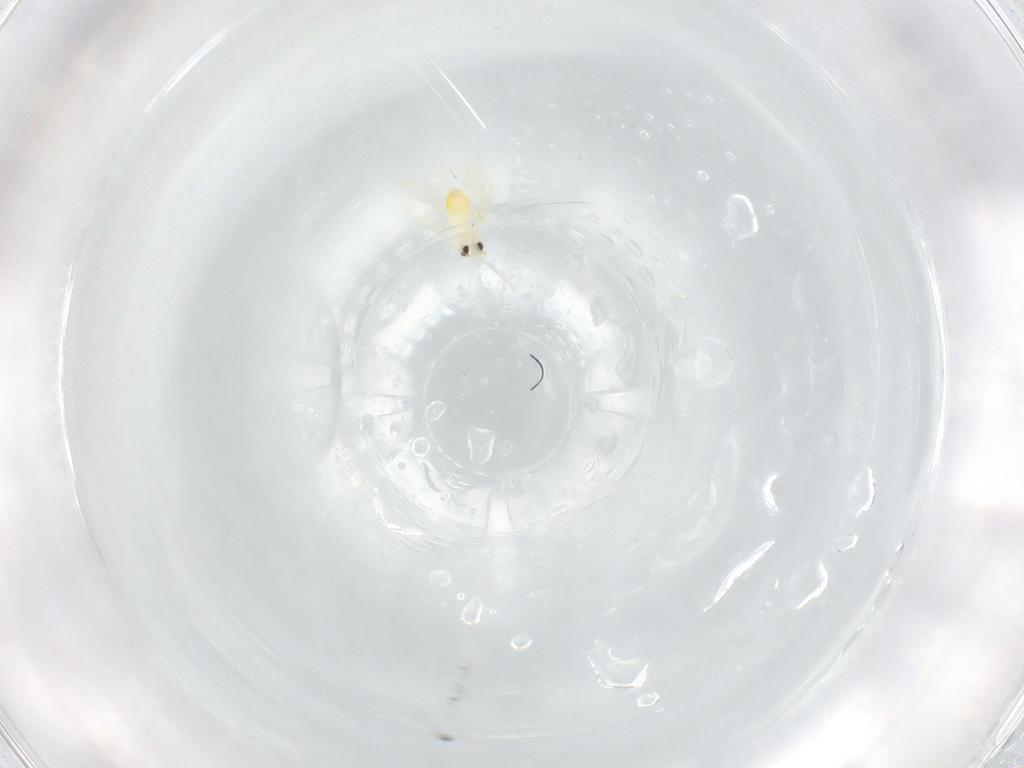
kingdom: Animalia
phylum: Arthropoda
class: Insecta
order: Hemiptera
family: Aleyrodidae
